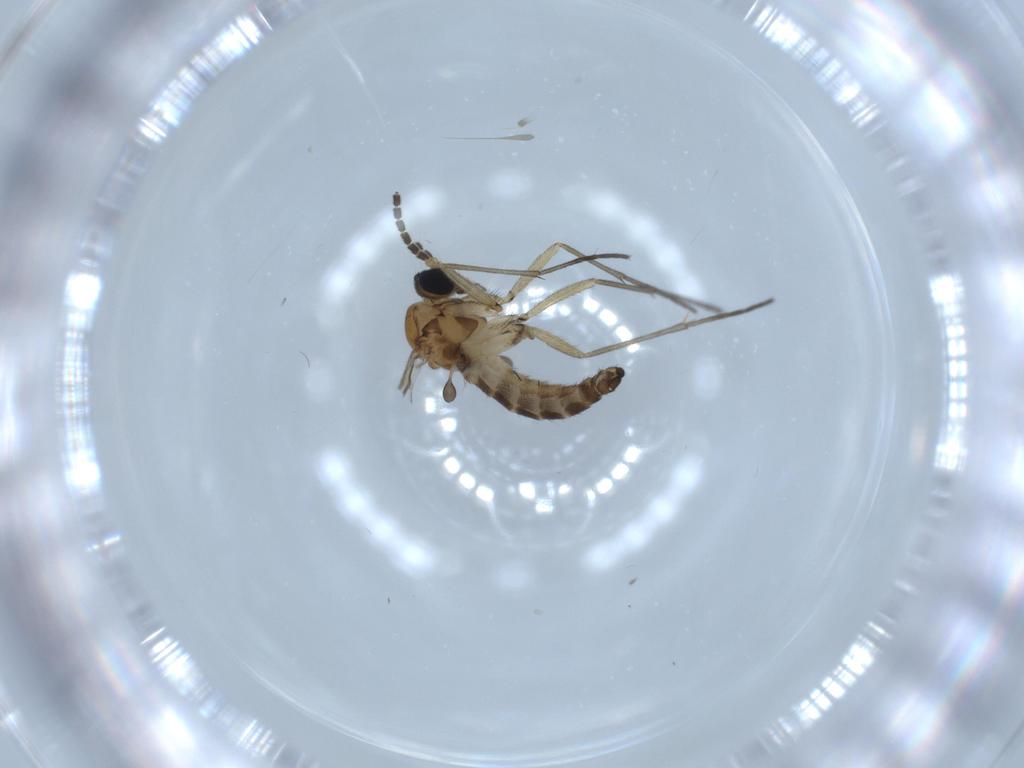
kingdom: Animalia
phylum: Arthropoda
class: Insecta
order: Diptera
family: Phoridae
